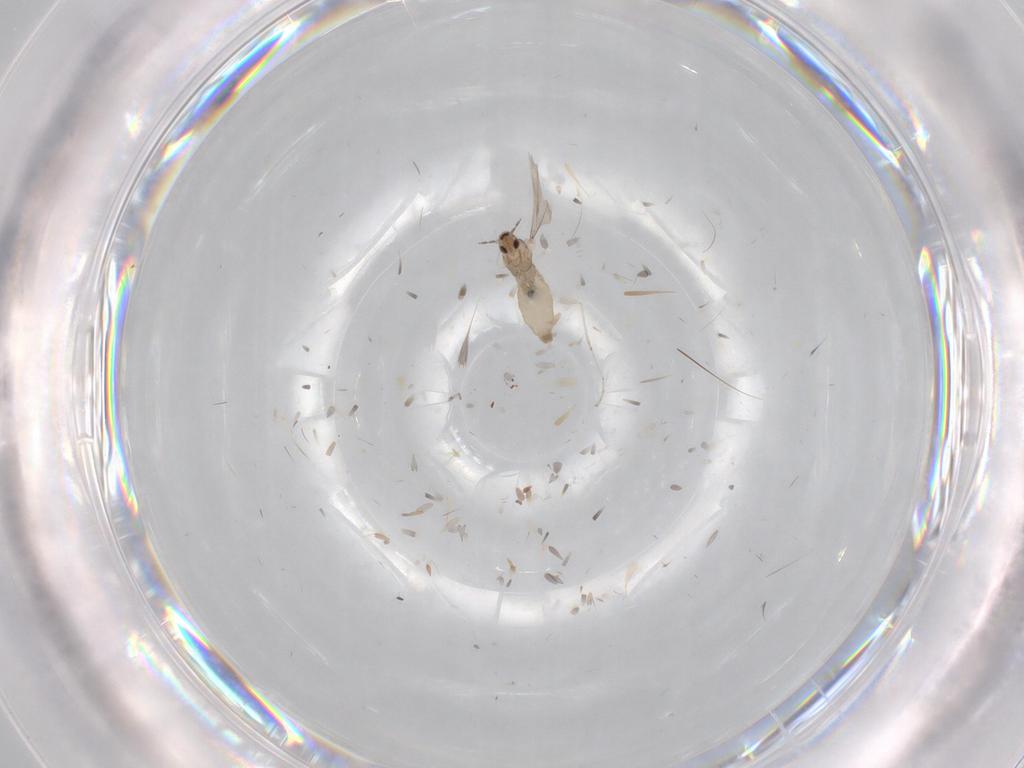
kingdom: Animalia
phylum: Arthropoda
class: Insecta
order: Diptera
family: Cecidomyiidae
